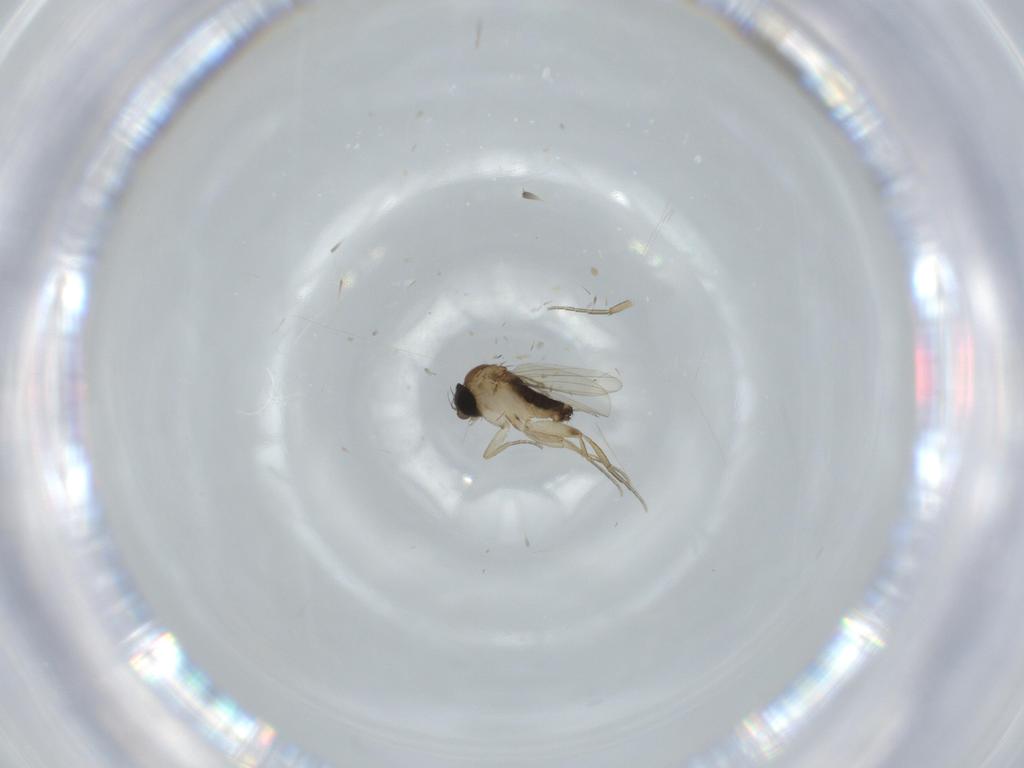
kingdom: Animalia
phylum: Arthropoda
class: Insecta
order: Diptera
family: Phoridae
